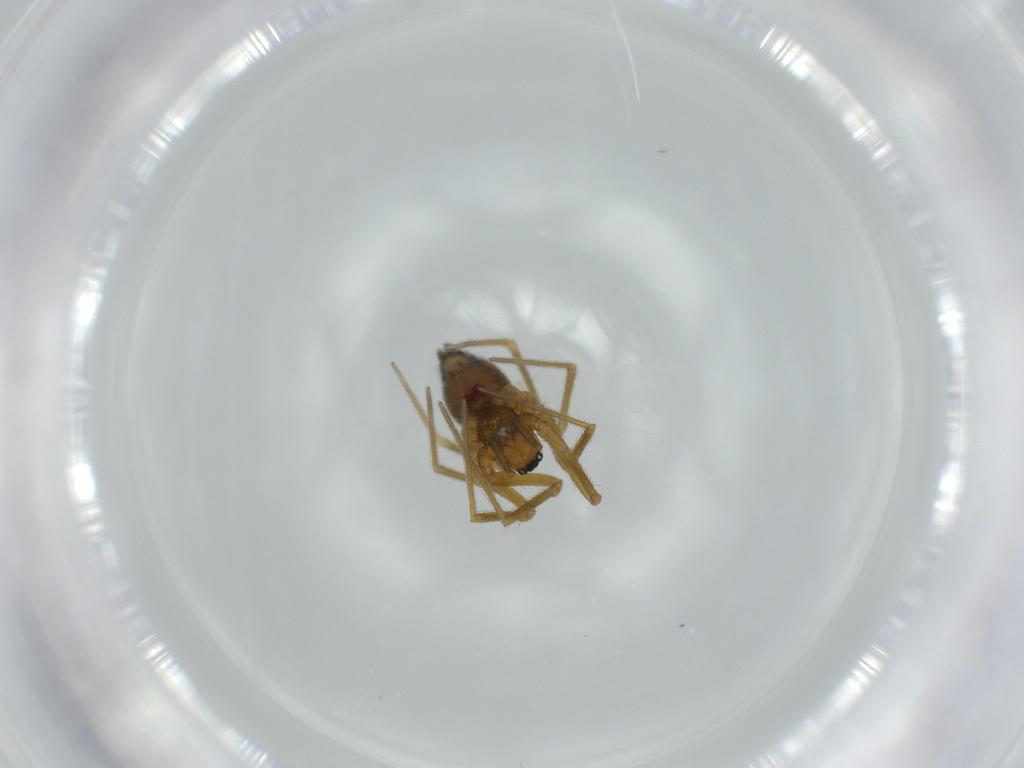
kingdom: Animalia
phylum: Arthropoda
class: Arachnida
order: Araneae
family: Linyphiidae
